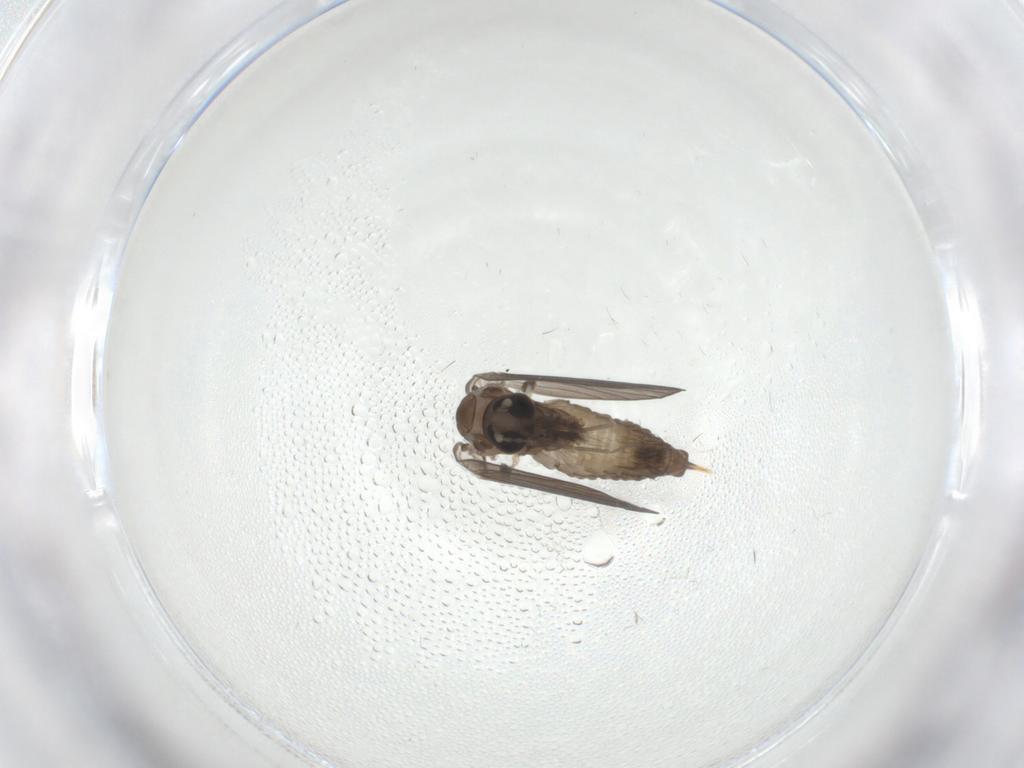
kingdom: Animalia
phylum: Arthropoda
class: Insecta
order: Diptera
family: Psychodidae
